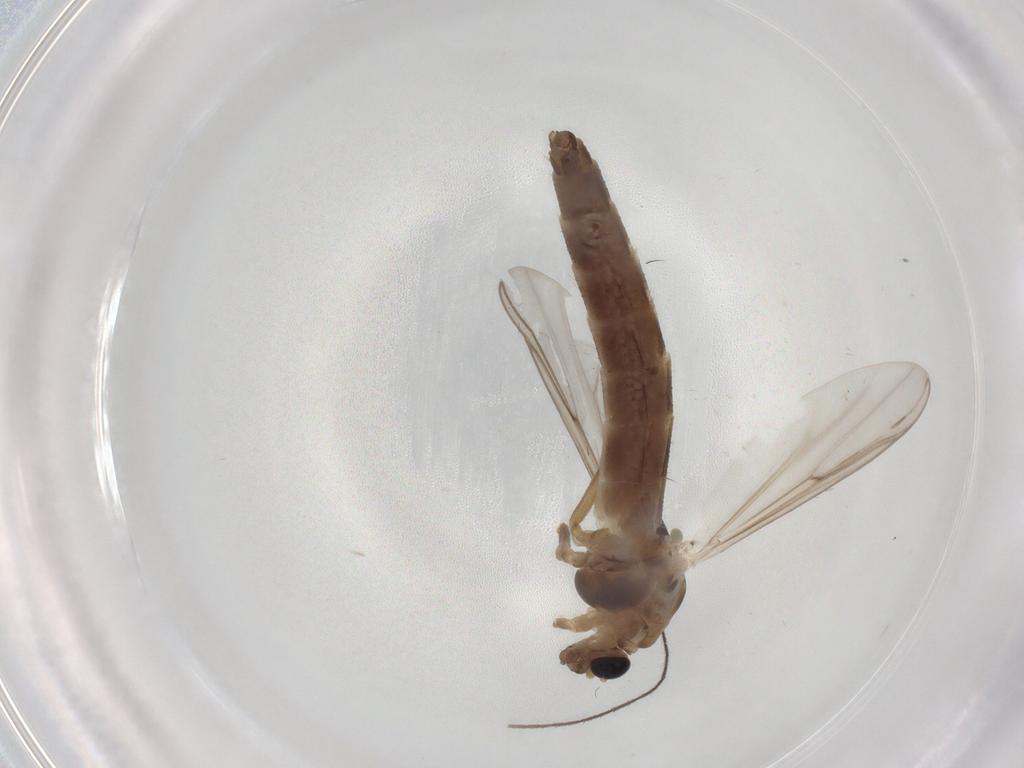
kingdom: Animalia
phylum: Arthropoda
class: Insecta
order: Diptera
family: Chironomidae
